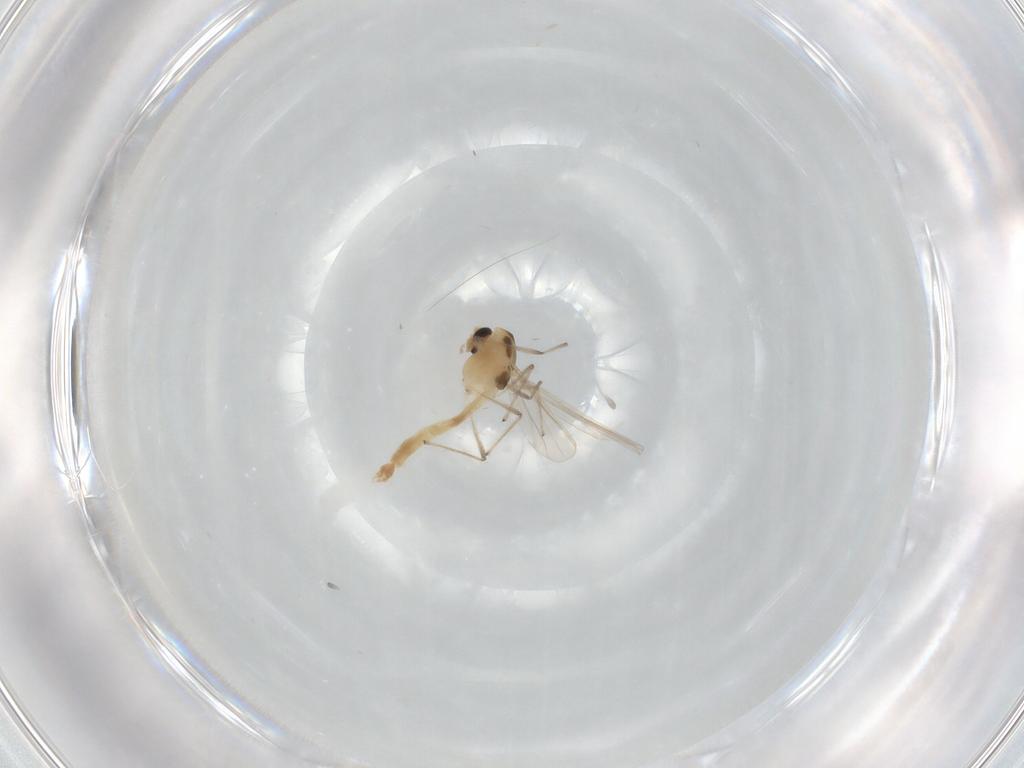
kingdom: Animalia
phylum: Arthropoda
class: Insecta
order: Diptera
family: Chironomidae
